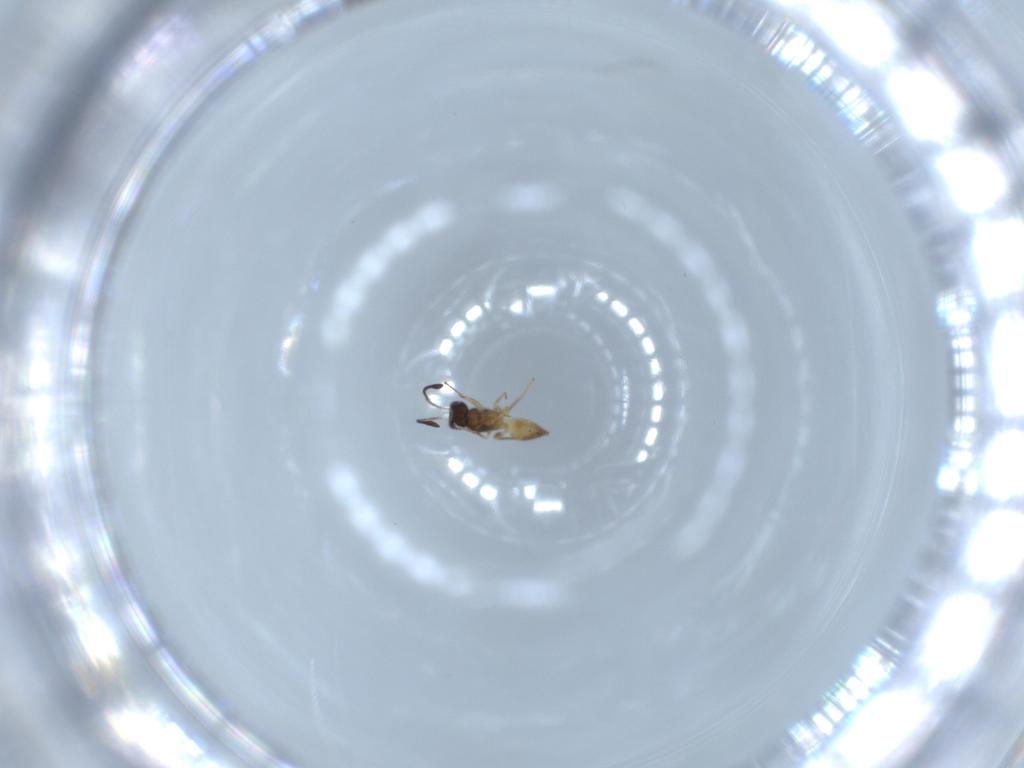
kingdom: Animalia
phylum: Arthropoda
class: Insecta
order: Hymenoptera
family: Mymaridae
